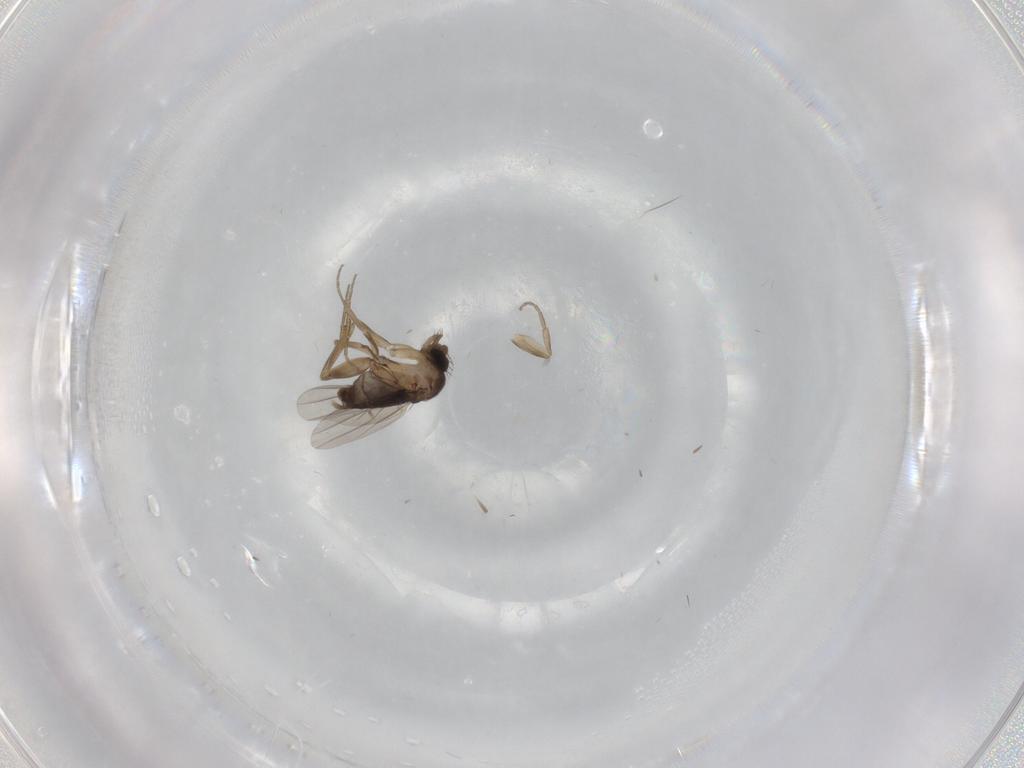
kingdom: Animalia
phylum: Arthropoda
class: Insecta
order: Diptera
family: Phoridae
